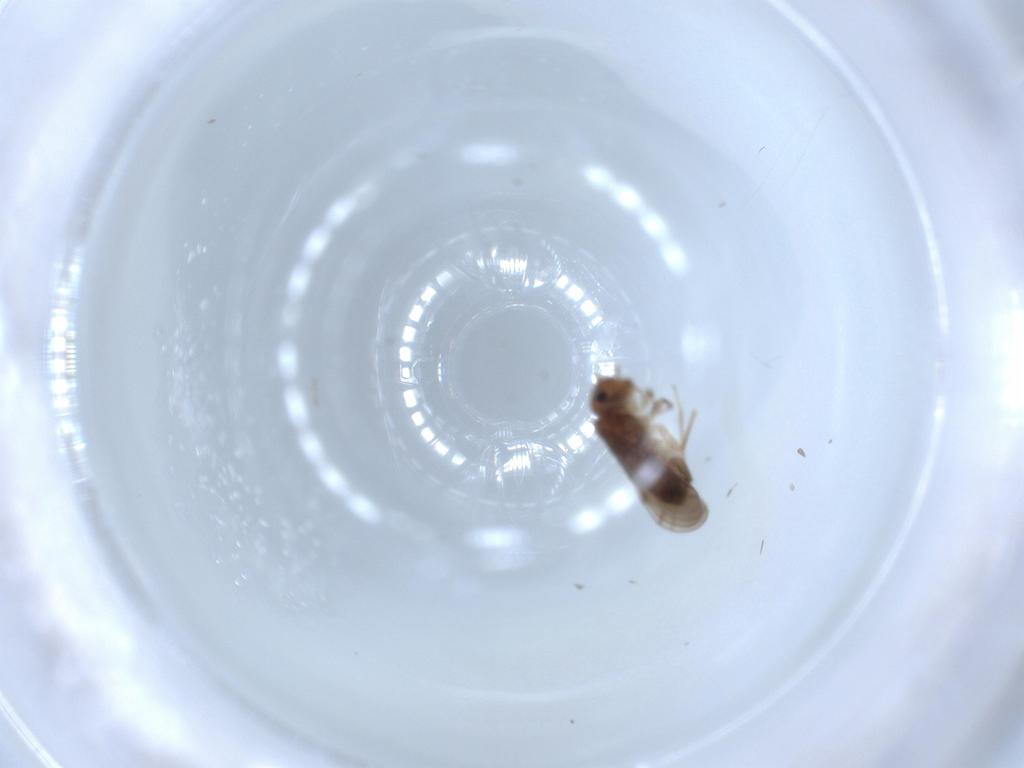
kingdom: Animalia
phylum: Arthropoda
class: Insecta
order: Psocodea
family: Ectopsocidae
